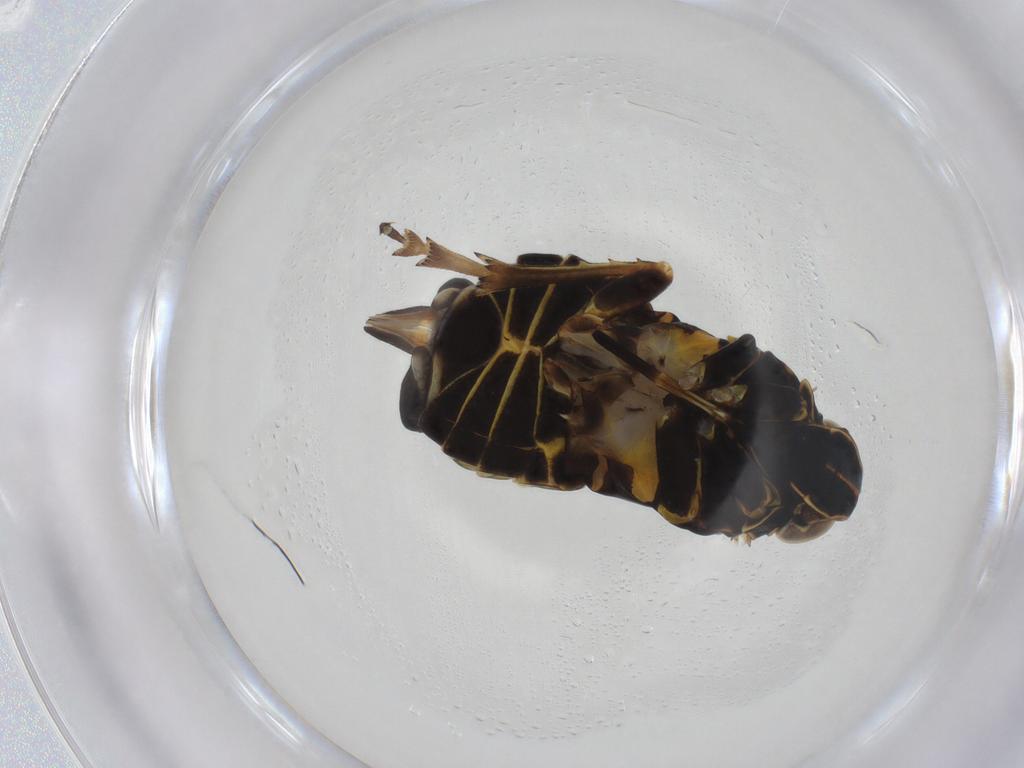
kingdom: Animalia
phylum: Arthropoda
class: Insecta
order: Hemiptera
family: Cixiidae
